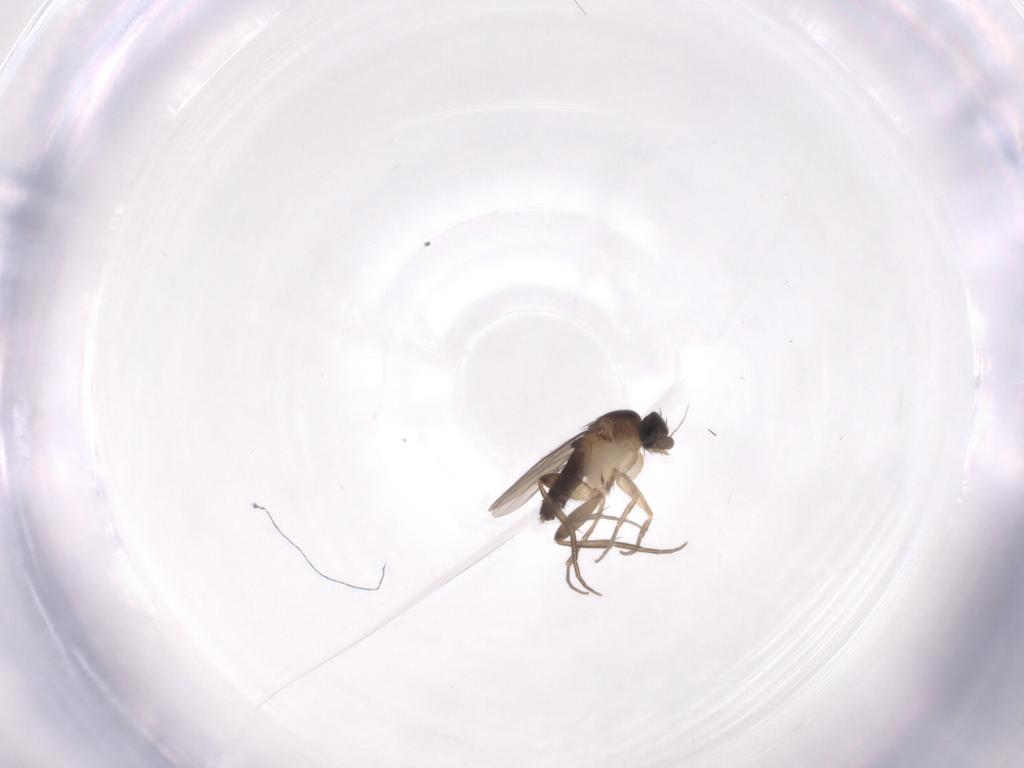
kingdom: Animalia
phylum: Arthropoda
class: Insecta
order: Diptera
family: Phoridae
